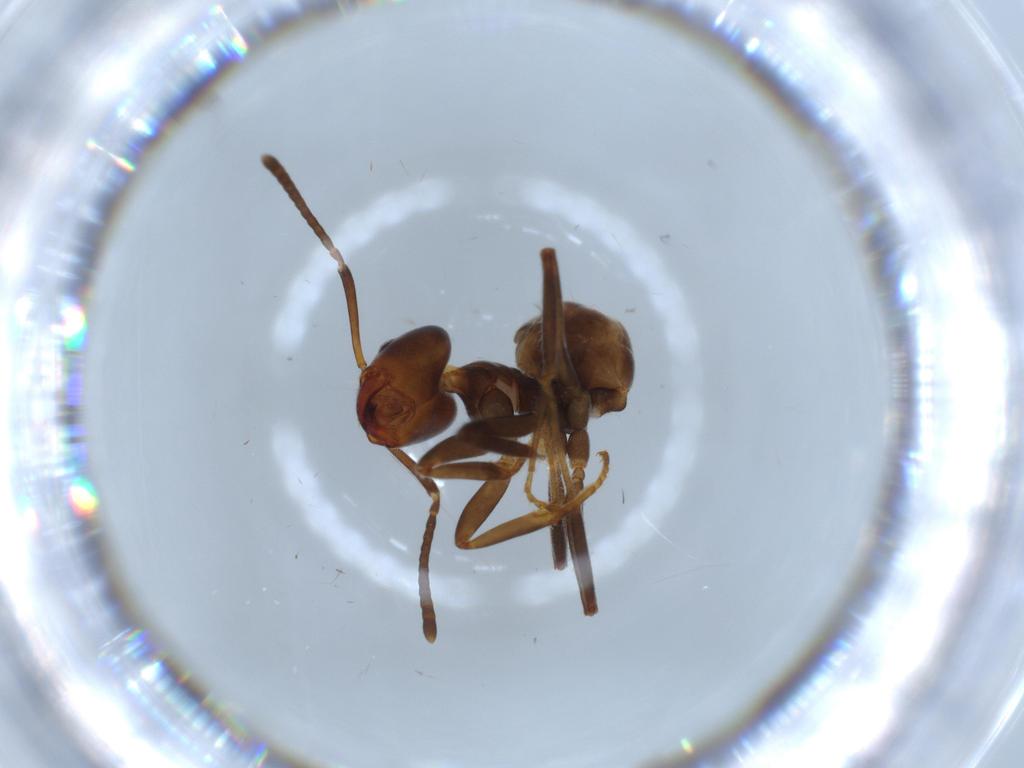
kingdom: Animalia
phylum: Arthropoda
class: Insecta
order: Hymenoptera
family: Formicidae
